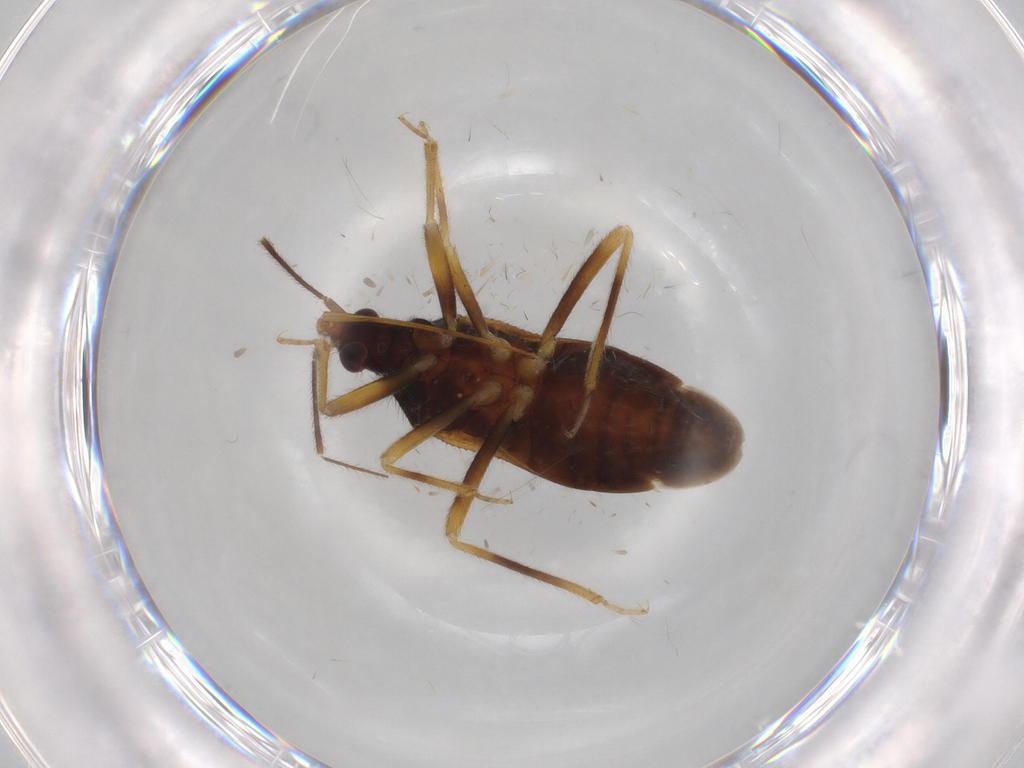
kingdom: Animalia
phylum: Arthropoda
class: Insecta
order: Hemiptera
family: Anthocoridae
